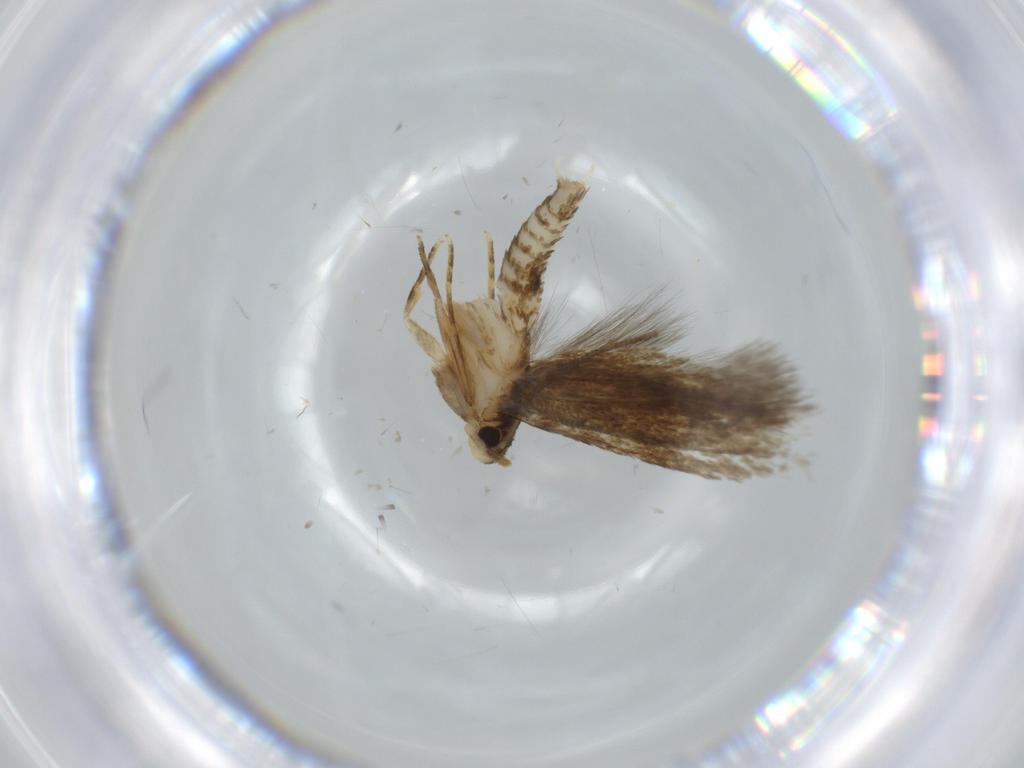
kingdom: Animalia
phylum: Arthropoda
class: Insecta
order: Lepidoptera
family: Tineidae
